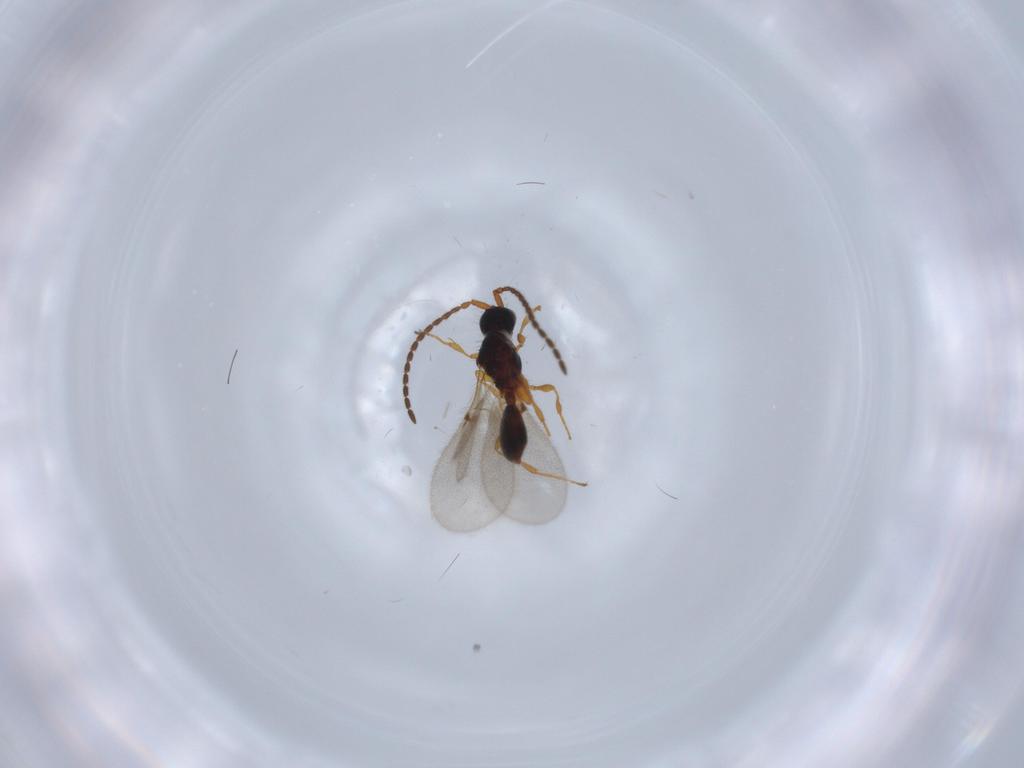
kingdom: Animalia
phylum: Arthropoda
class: Insecta
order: Hymenoptera
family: Diapriidae
